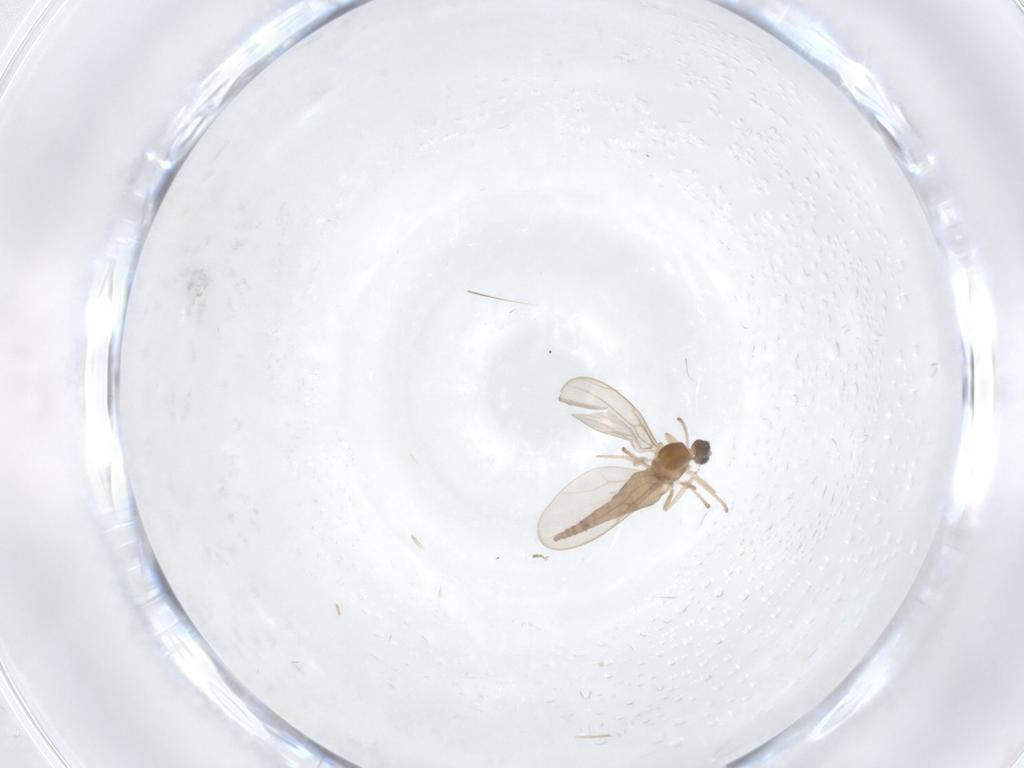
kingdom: Animalia
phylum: Arthropoda
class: Insecta
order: Diptera
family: Cecidomyiidae
